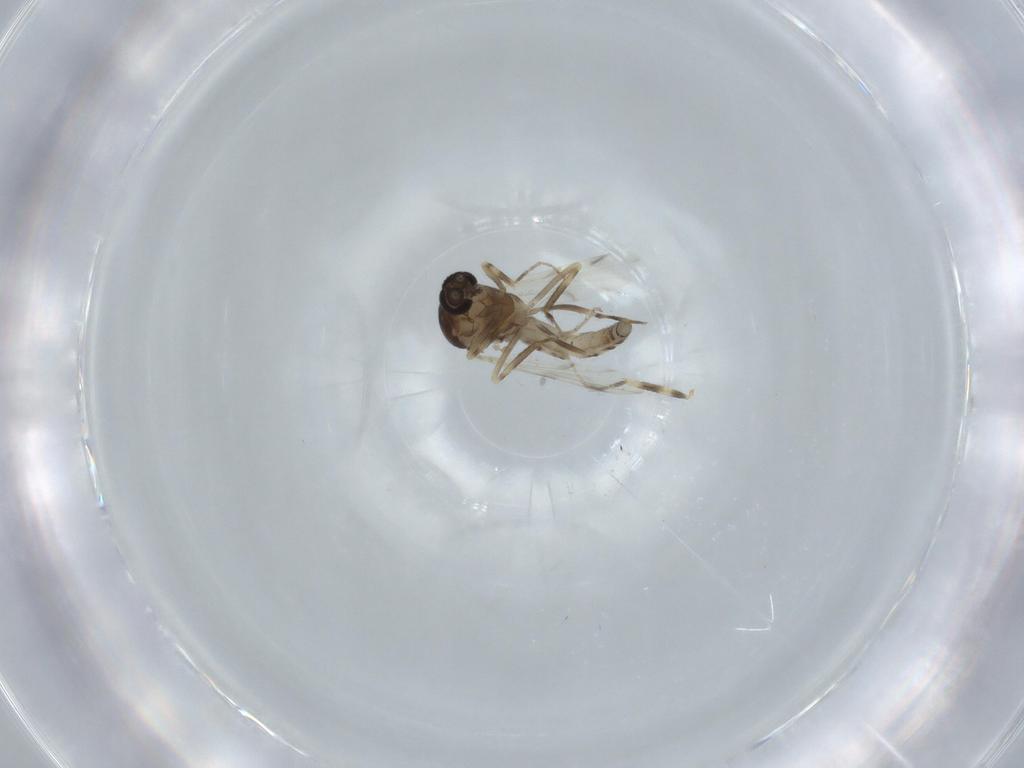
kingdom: Animalia
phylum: Arthropoda
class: Insecta
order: Diptera
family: Ceratopogonidae
